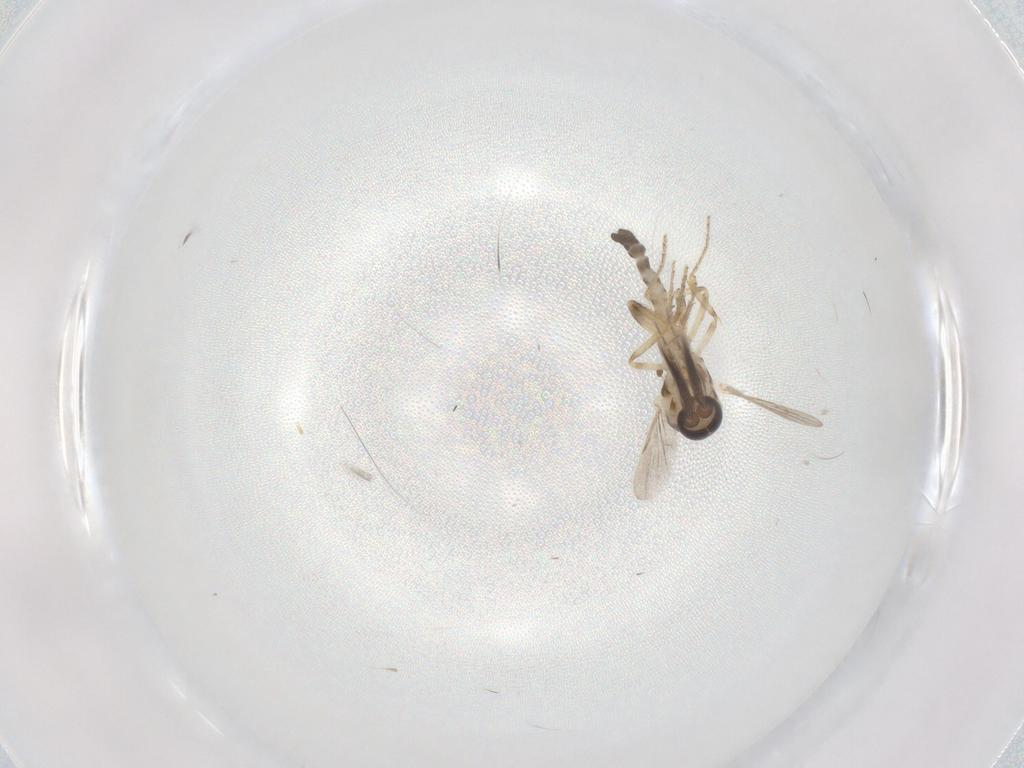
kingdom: Animalia
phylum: Arthropoda
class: Insecta
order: Diptera
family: Ceratopogonidae
